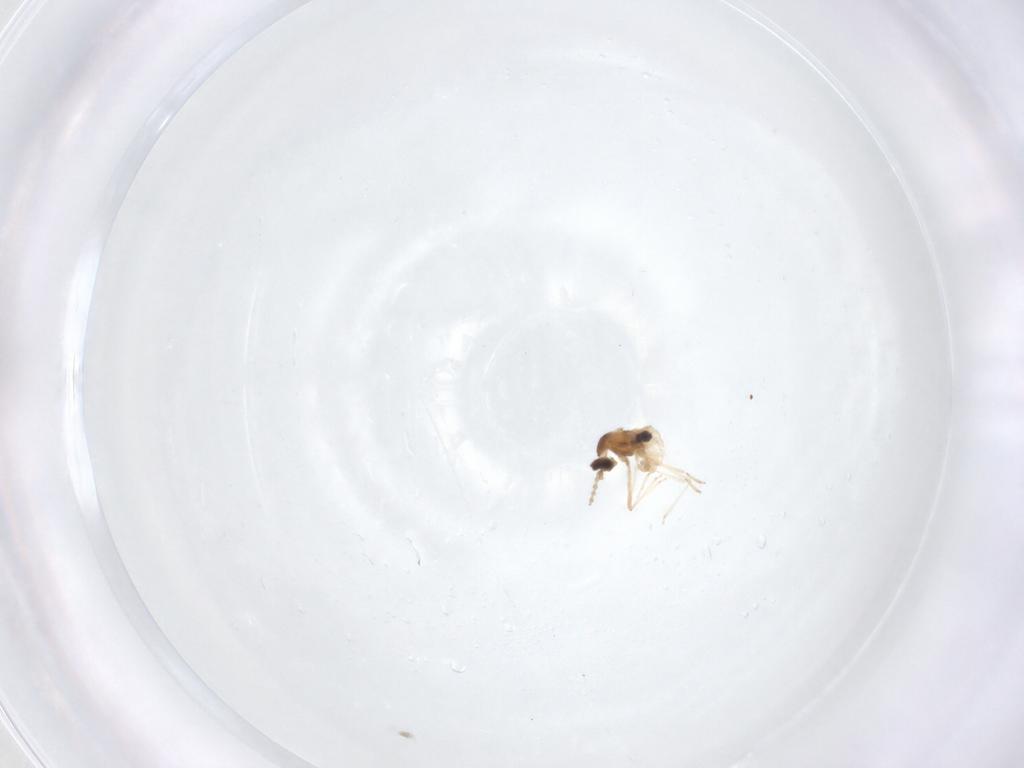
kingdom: Animalia
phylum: Arthropoda
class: Insecta
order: Diptera
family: Cecidomyiidae
